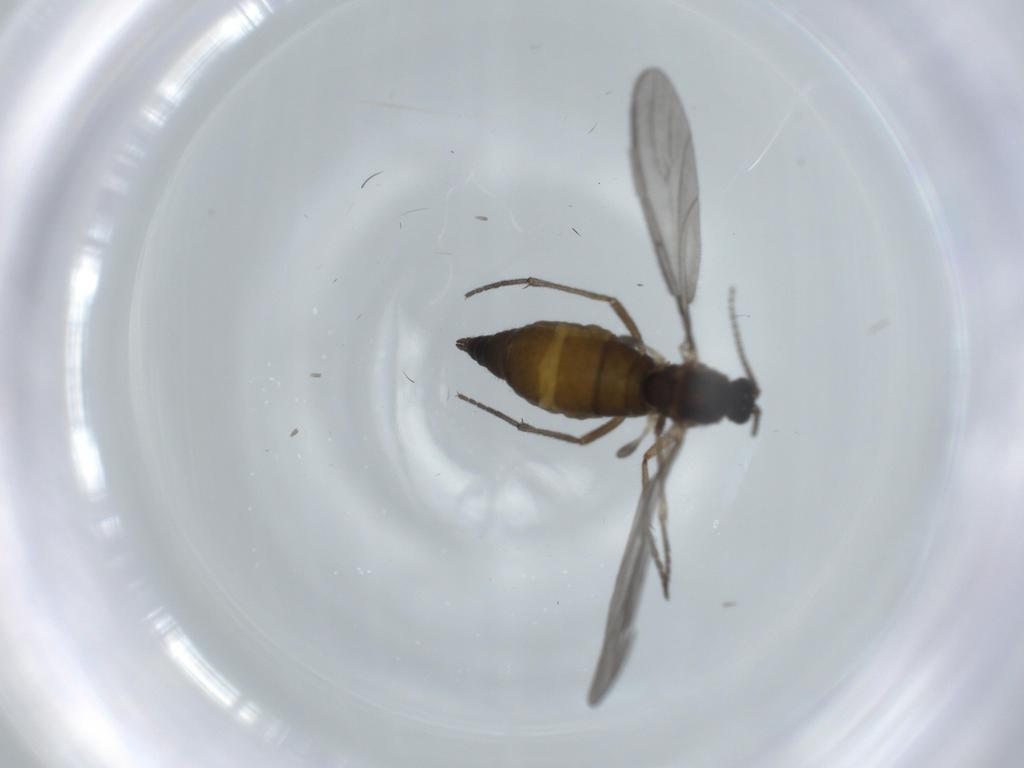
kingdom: Animalia
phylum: Arthropoda
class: Insecta
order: Diptera
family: Sciaridae
